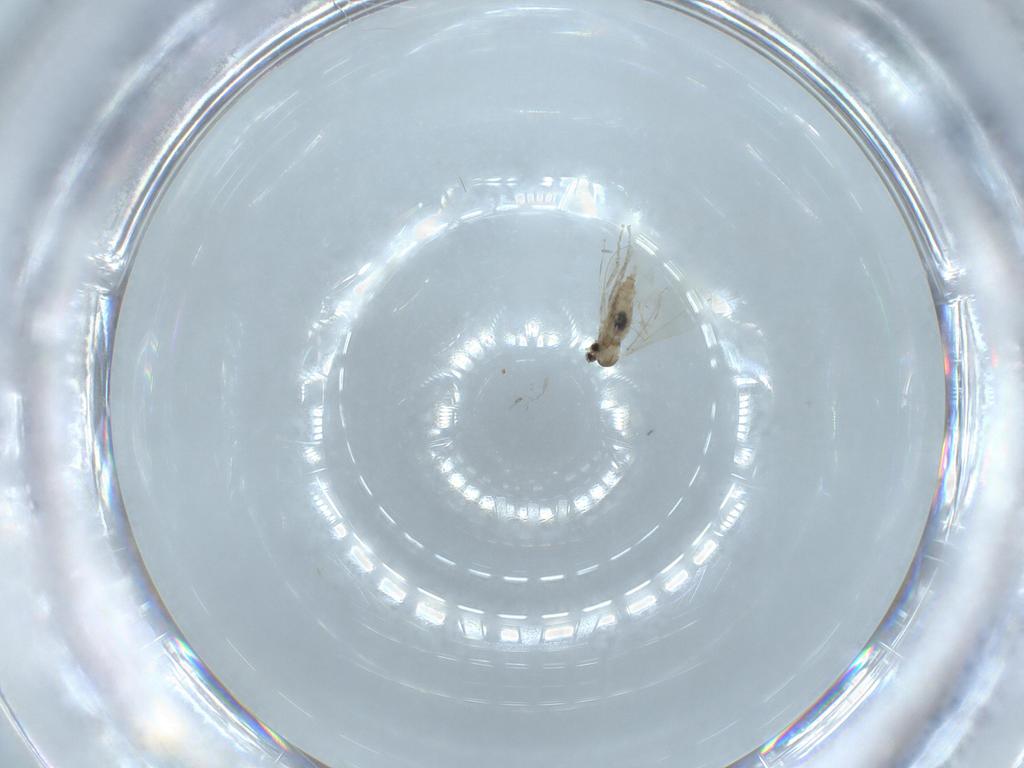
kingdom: Animalia
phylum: Arthropoda
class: Insecta
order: Diptera
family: Cecidomyiidae
